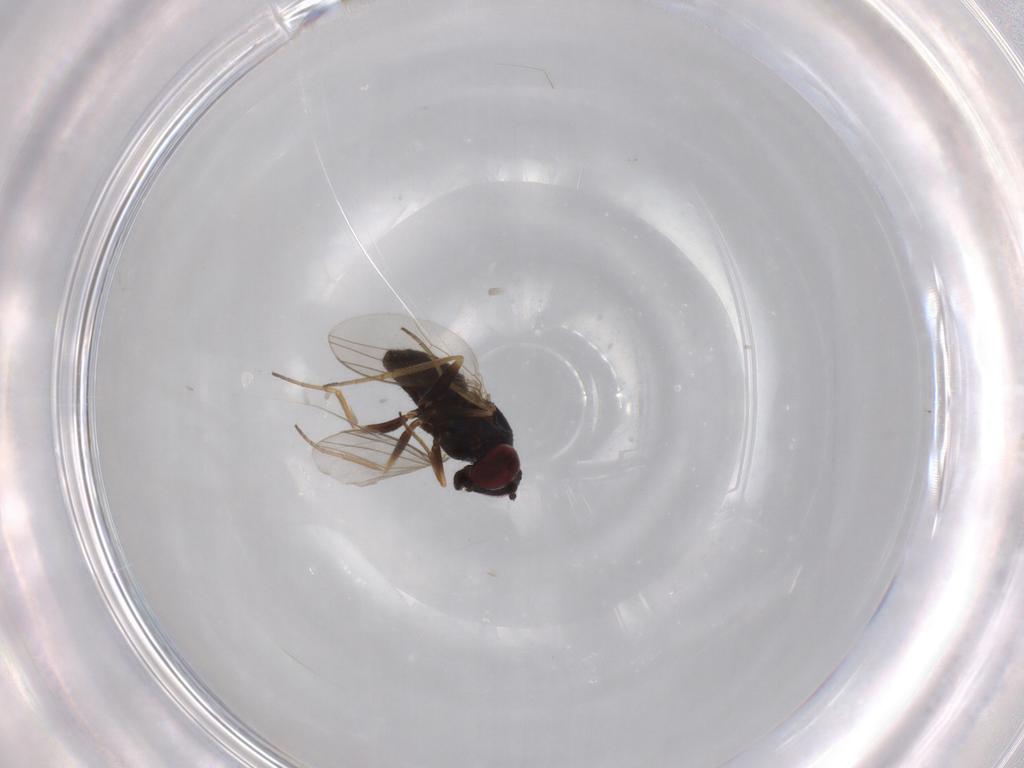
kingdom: Animalia
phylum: Arthropoda
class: Insecta
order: Diptera
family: Dolichopodidae
